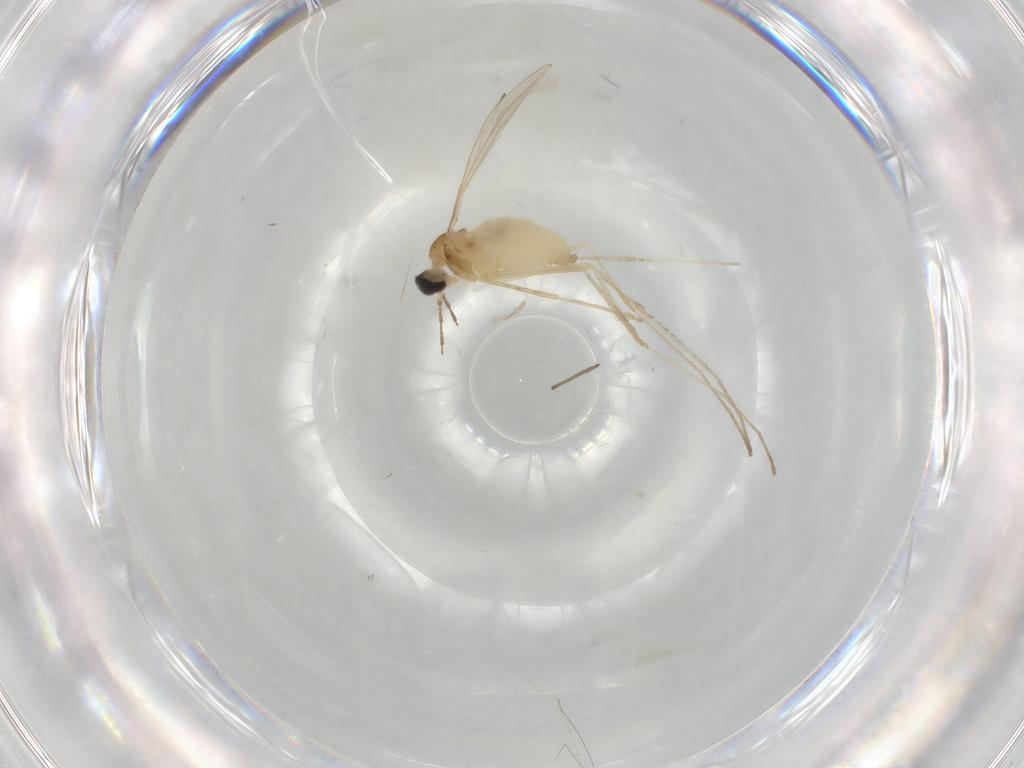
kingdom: Animalia
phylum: Arthropoda
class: Insecta
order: Diptera
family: Cecidomyiidae
